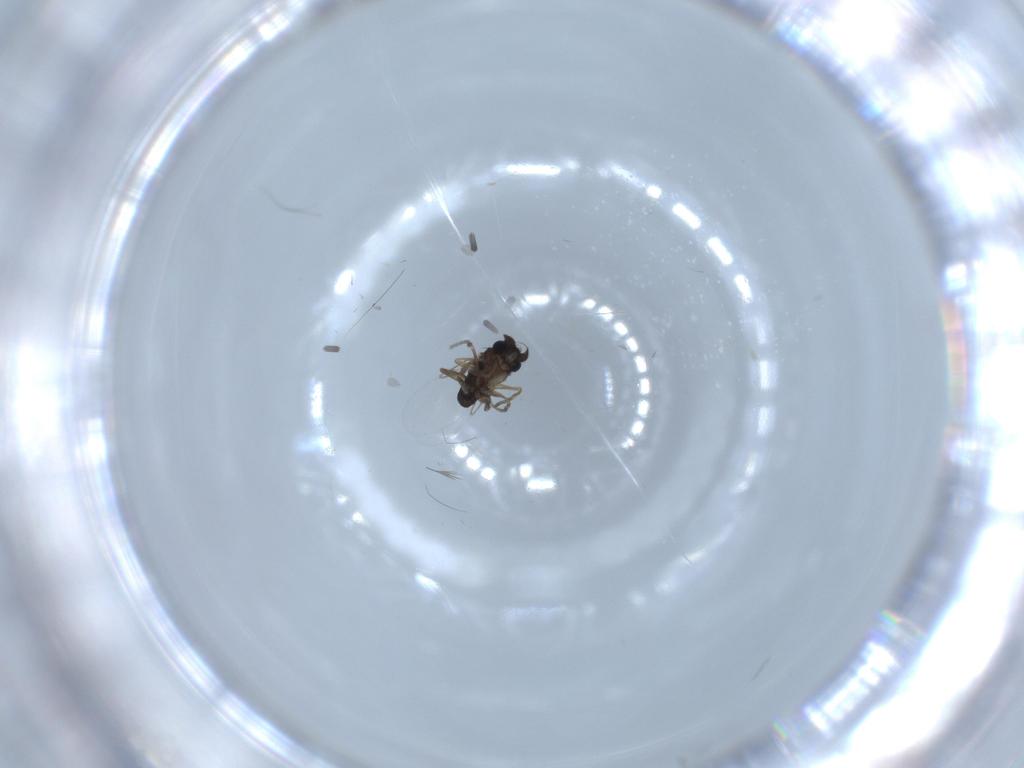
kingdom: Animalia
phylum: Arthropoda
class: Insecta
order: Diptera
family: Phoridae
